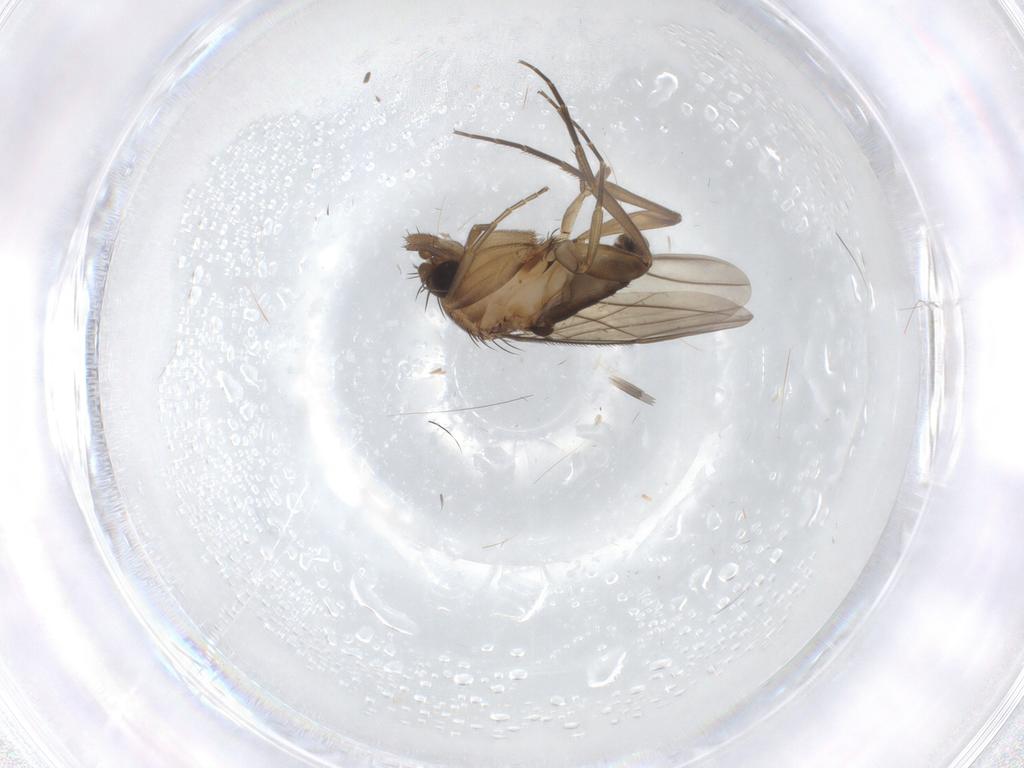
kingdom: Animalia
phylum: Arthropoda
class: Insecta
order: Diptera
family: Phoridae
